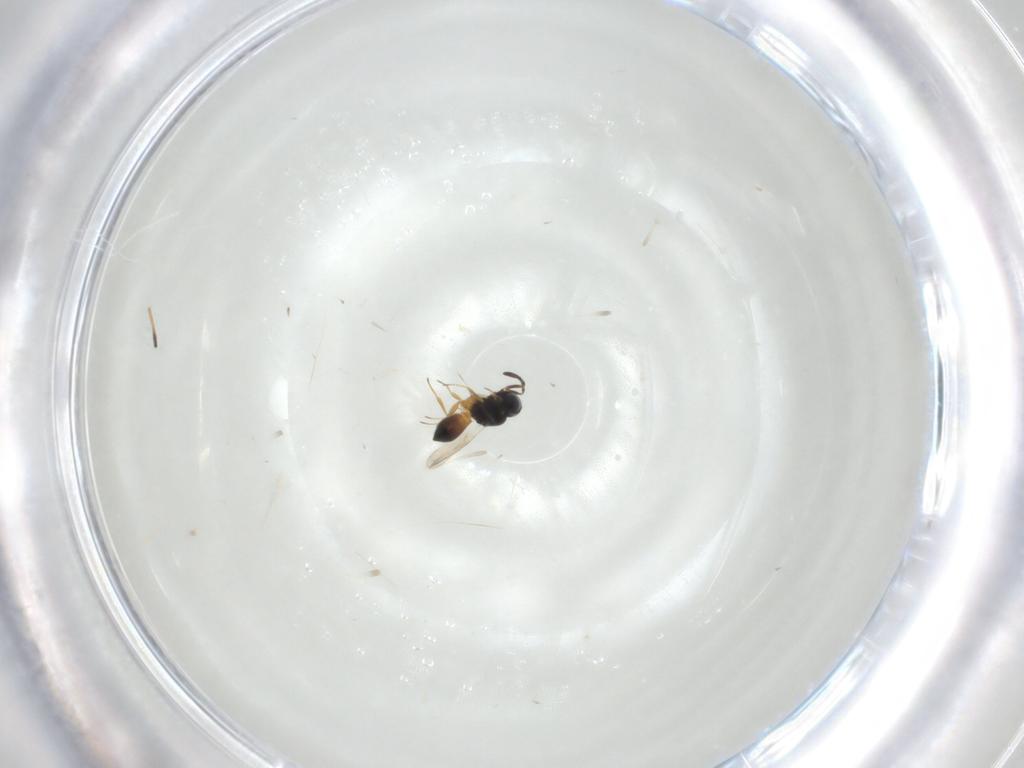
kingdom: Animalia
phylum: Arthropoda
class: Insecta
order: Hymenoptera
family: Scelionidae
